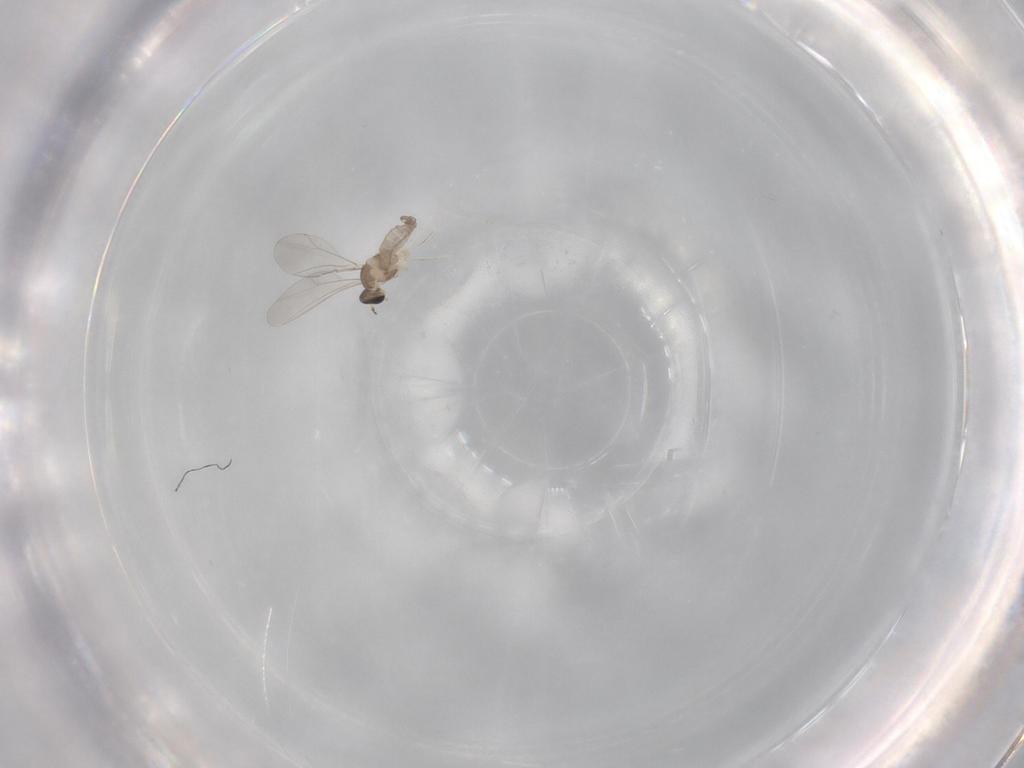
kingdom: Animalia
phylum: Arthropoda
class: Insecta
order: Diptera
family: Cecidomyiidae
